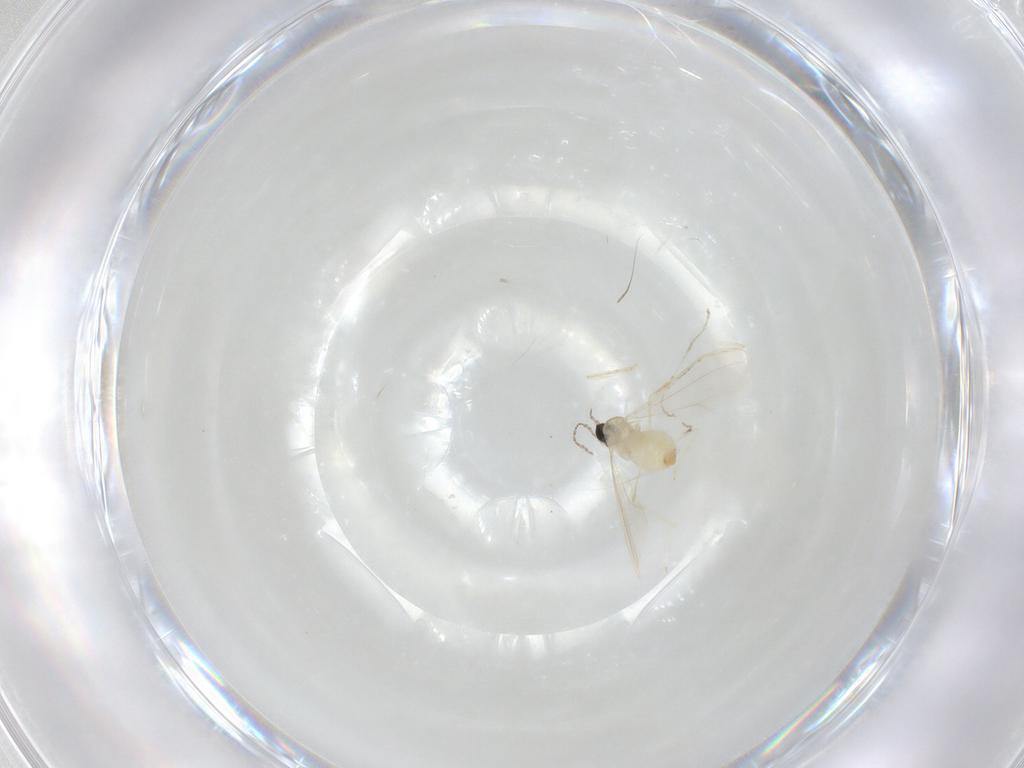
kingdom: Animalia
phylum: Arthropoda
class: Insecta
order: Diptera
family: Cecidomyiidae
